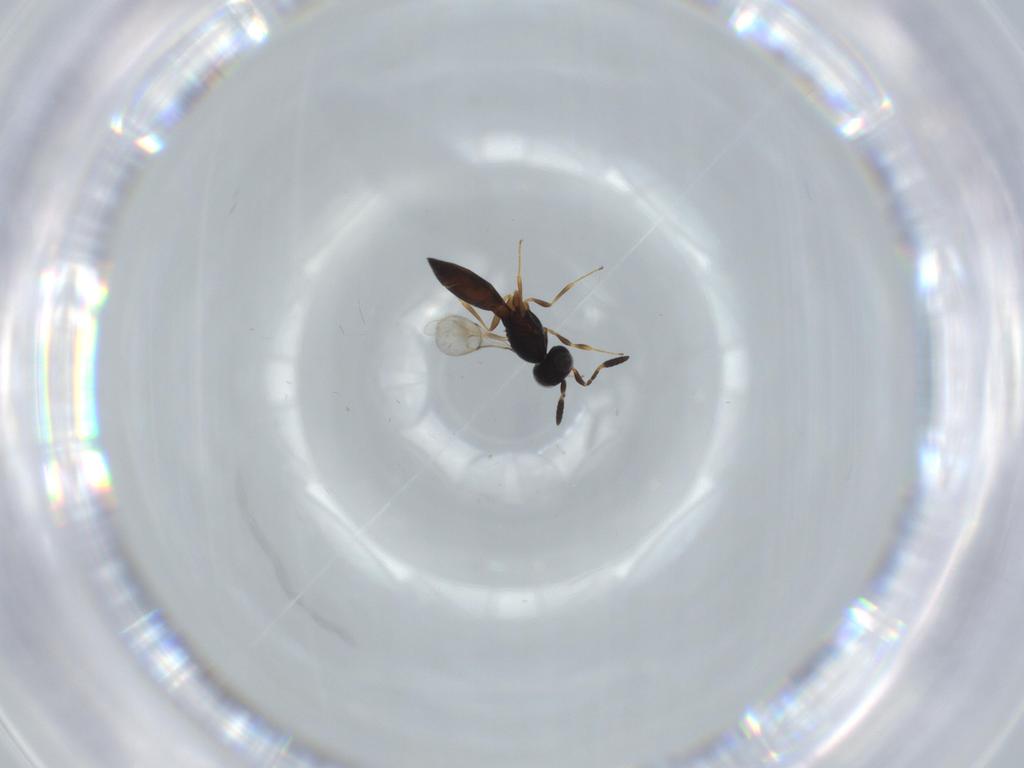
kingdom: Animalia
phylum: Arthropoda
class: Insecta
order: Hymenoptera
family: Scelionidae
